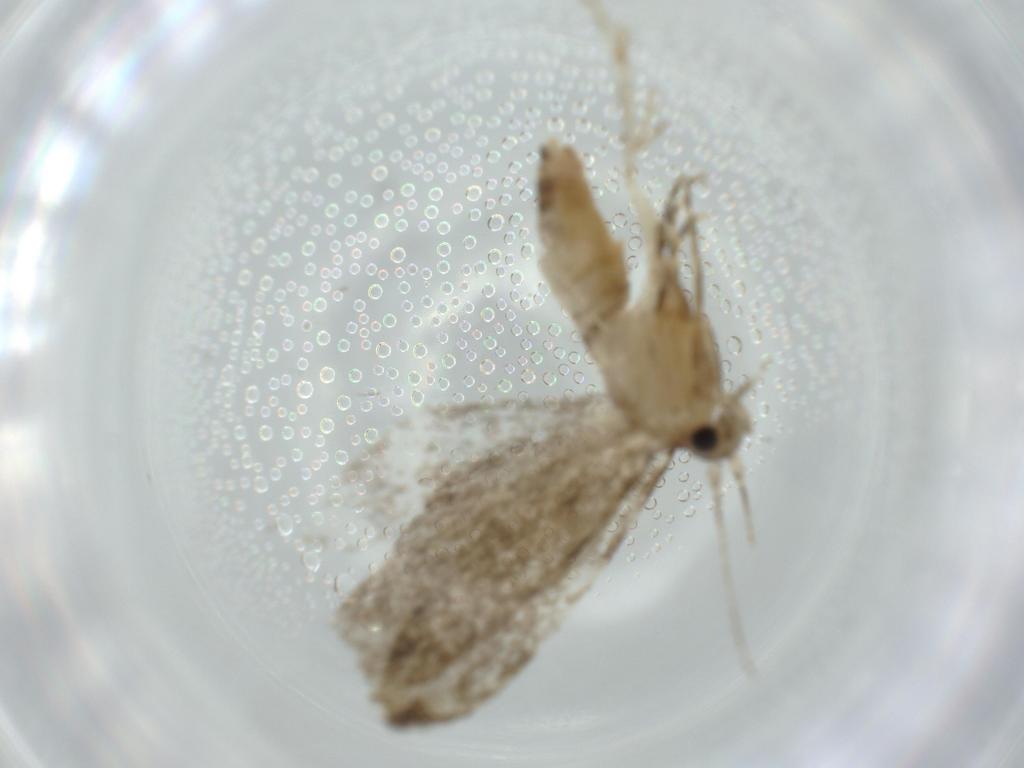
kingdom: Animalia
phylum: Arthropoda
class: Insecta
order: Lepidoptera
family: Tineidae
